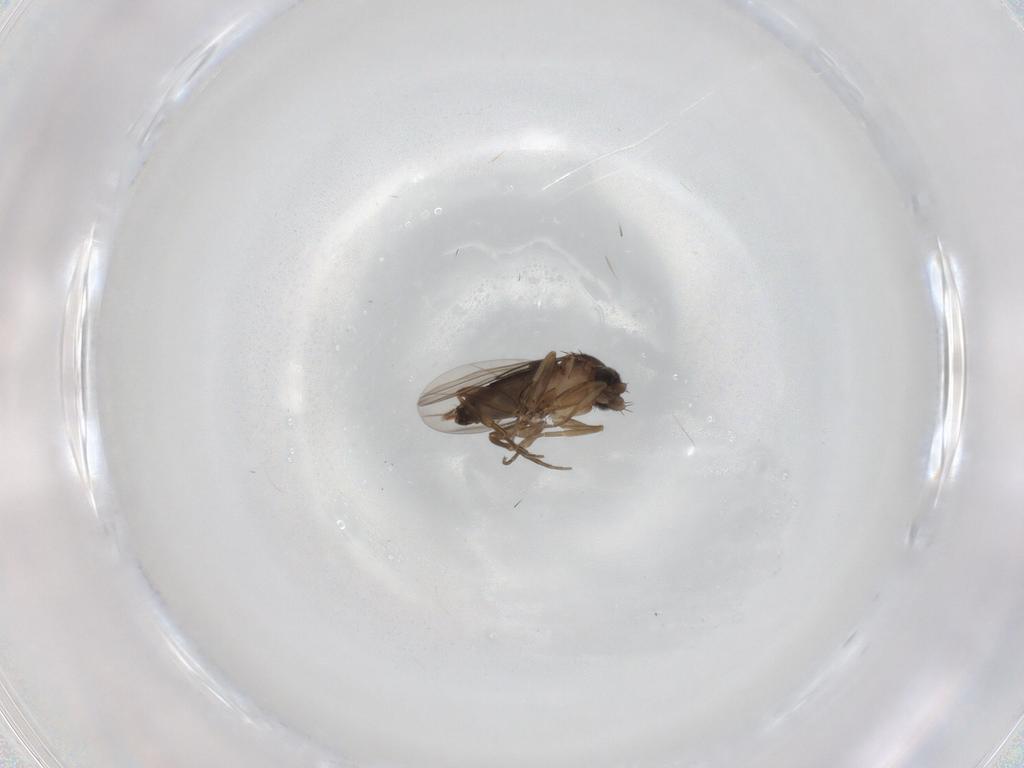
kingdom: Animalia
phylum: Arthropoda
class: Insecta
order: Diptera
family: Phoridae
